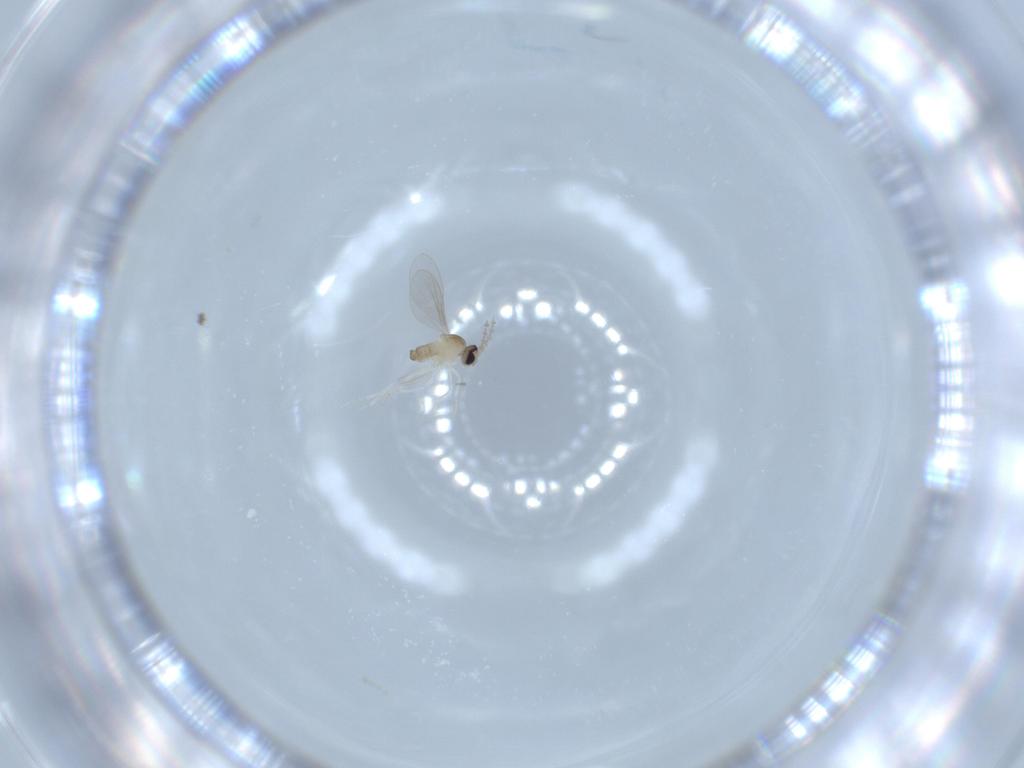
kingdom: Animalia
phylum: Arthropoda
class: Insecta
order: Diptera
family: Cecidomyiidae
